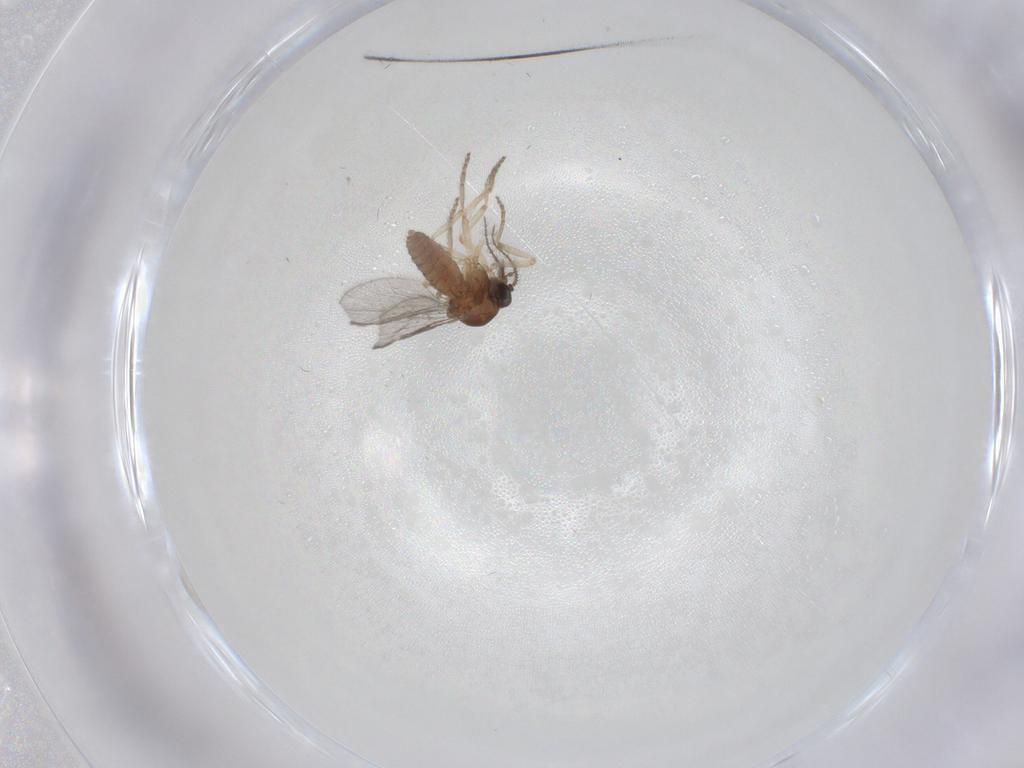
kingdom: Animalia
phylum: Arthropoda
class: Insecta
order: Diptera
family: Ceratopogonidae
